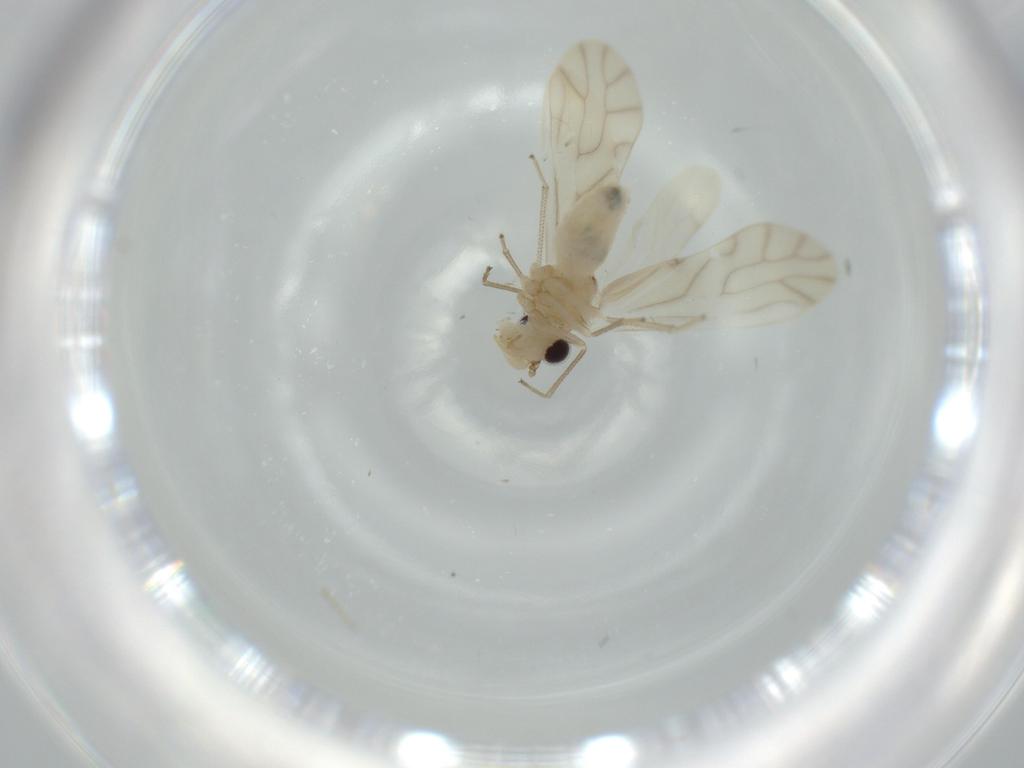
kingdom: Animalia
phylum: Arthropoda
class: Insecta
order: Psocodea
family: Caeciliusidae
